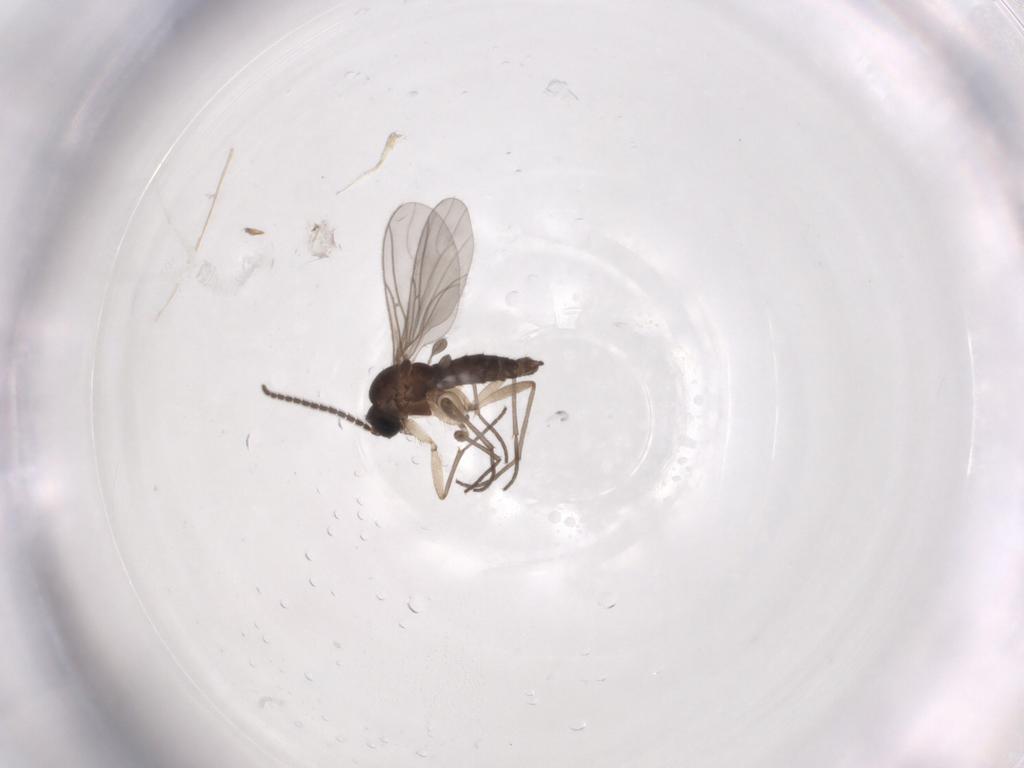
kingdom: Animalia
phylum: Arthropoda
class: Insecta
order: Diptera
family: Sciaridae
